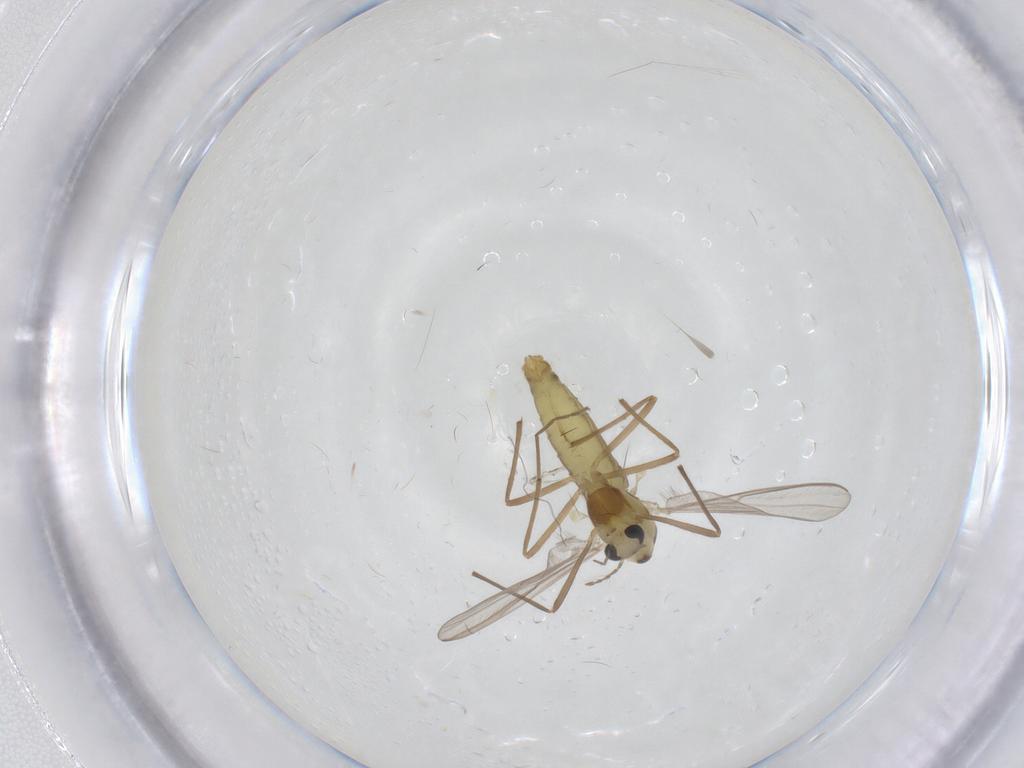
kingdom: Animalia
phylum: Arthropoda
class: Insecta
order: Diptera
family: Chironomidae
